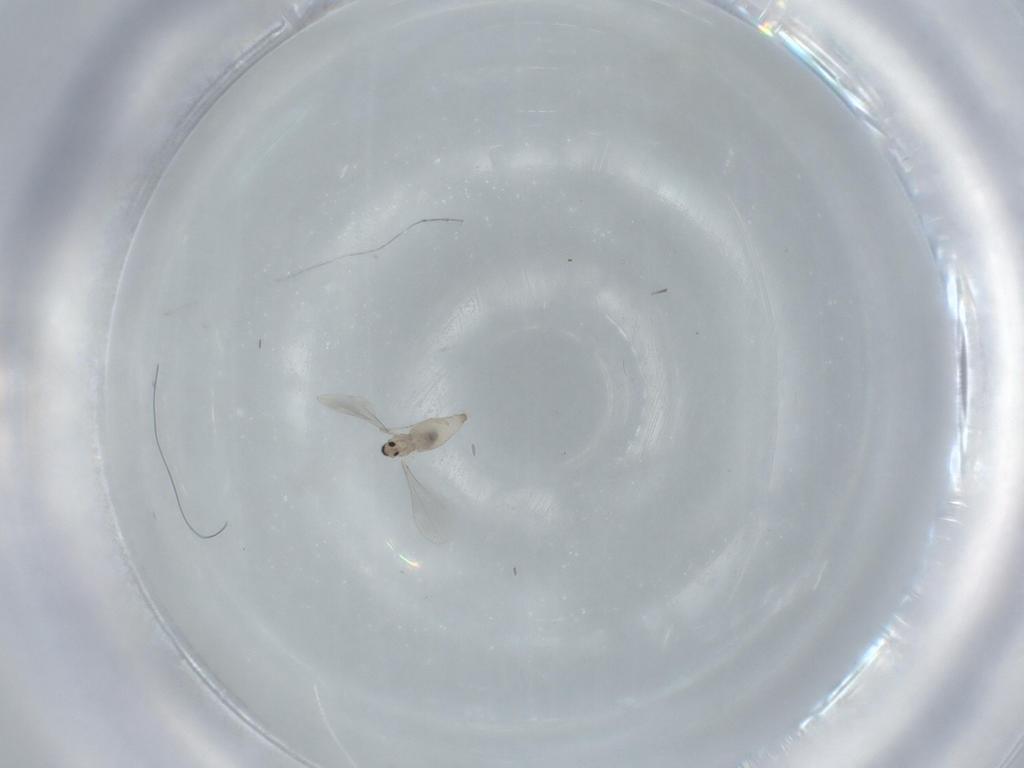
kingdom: Animalia
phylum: Arthropoda
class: Insecta
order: Diptera
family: Cecidomyiidae
